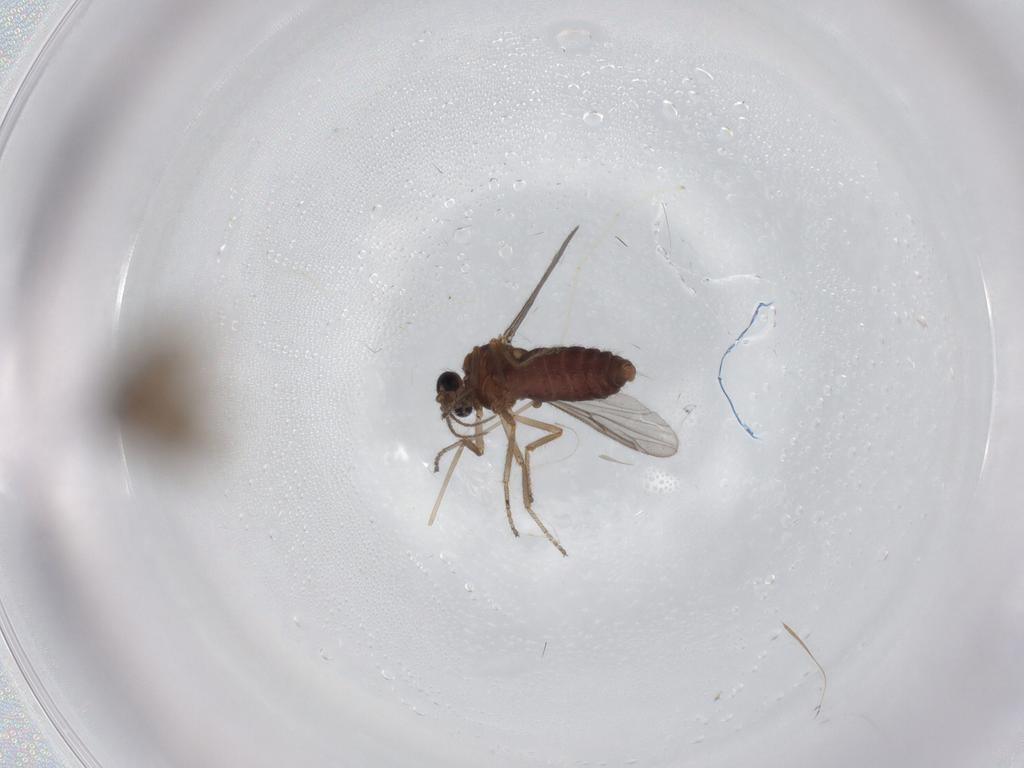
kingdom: Animalia
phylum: Arthropoda
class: Insecta
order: Diptera
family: Ceratopogonidae
